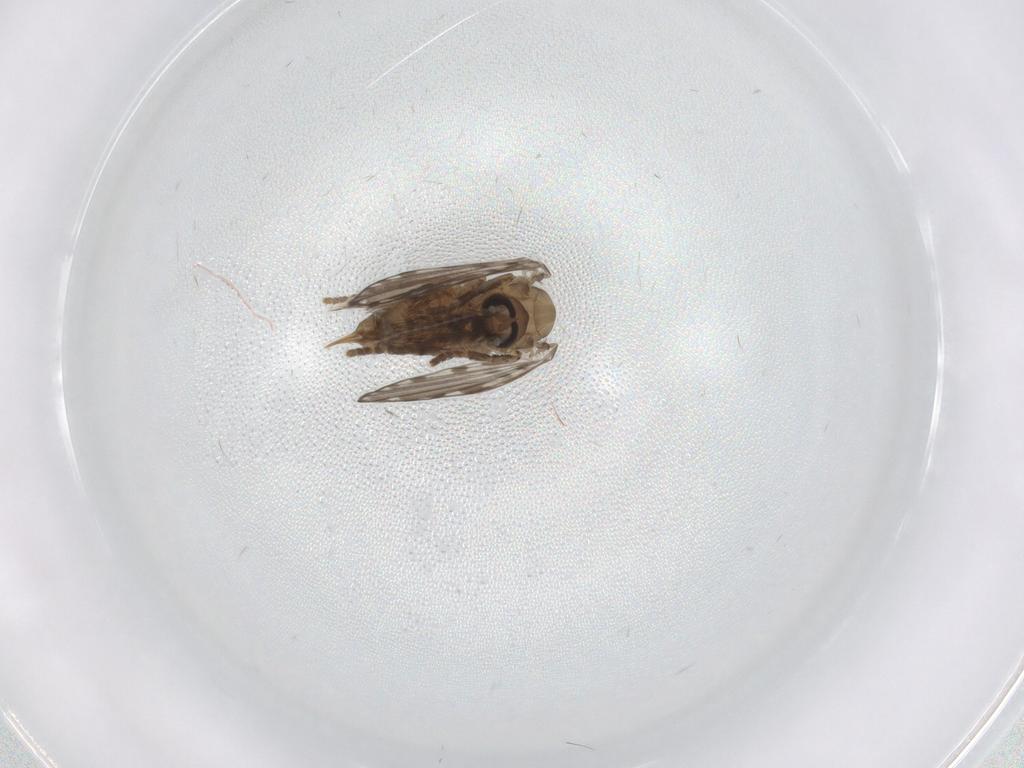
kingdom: Animalia
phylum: Arthropoda
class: Insecta
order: Diptera
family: Psychodidae
